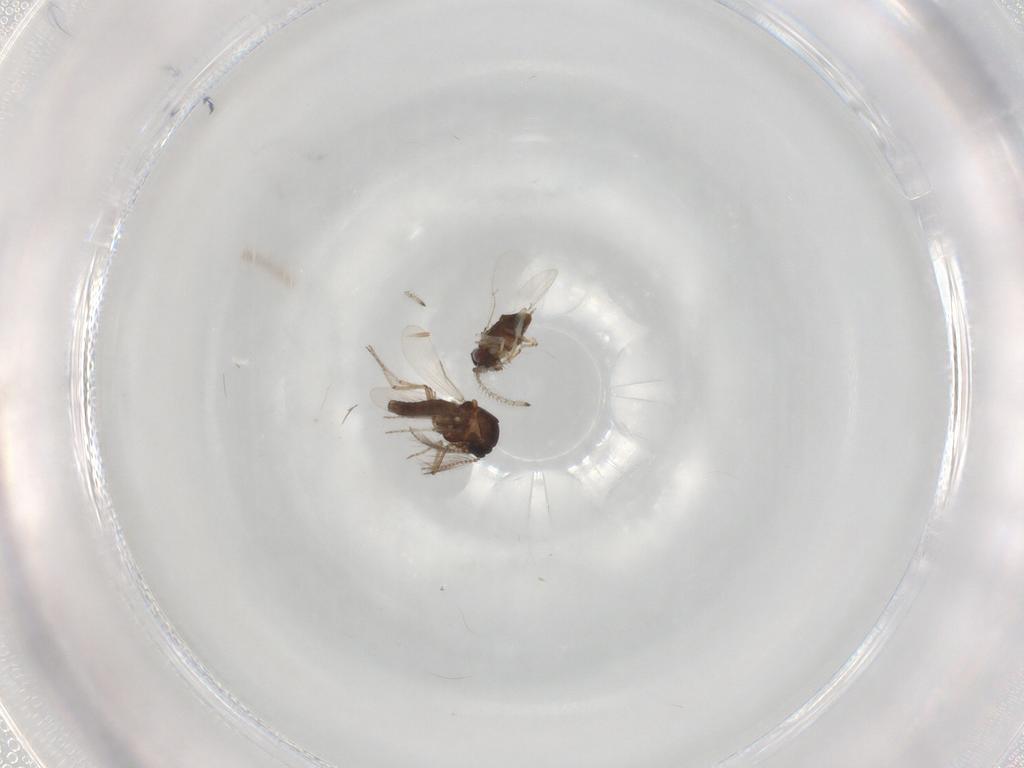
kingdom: Animalia
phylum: Arthropoda
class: Insecta
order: Diptera
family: Ceratopogonidae
